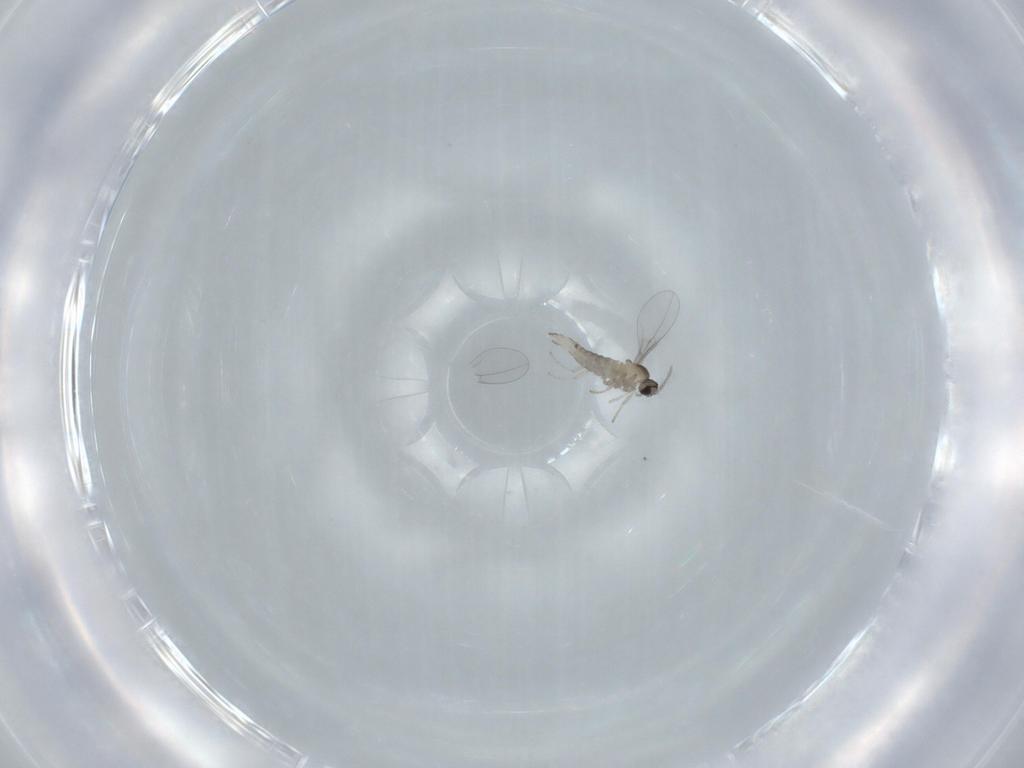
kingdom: Animalia
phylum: Arthropoda
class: Insecta
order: Diptera
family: Cecidomyiidae
